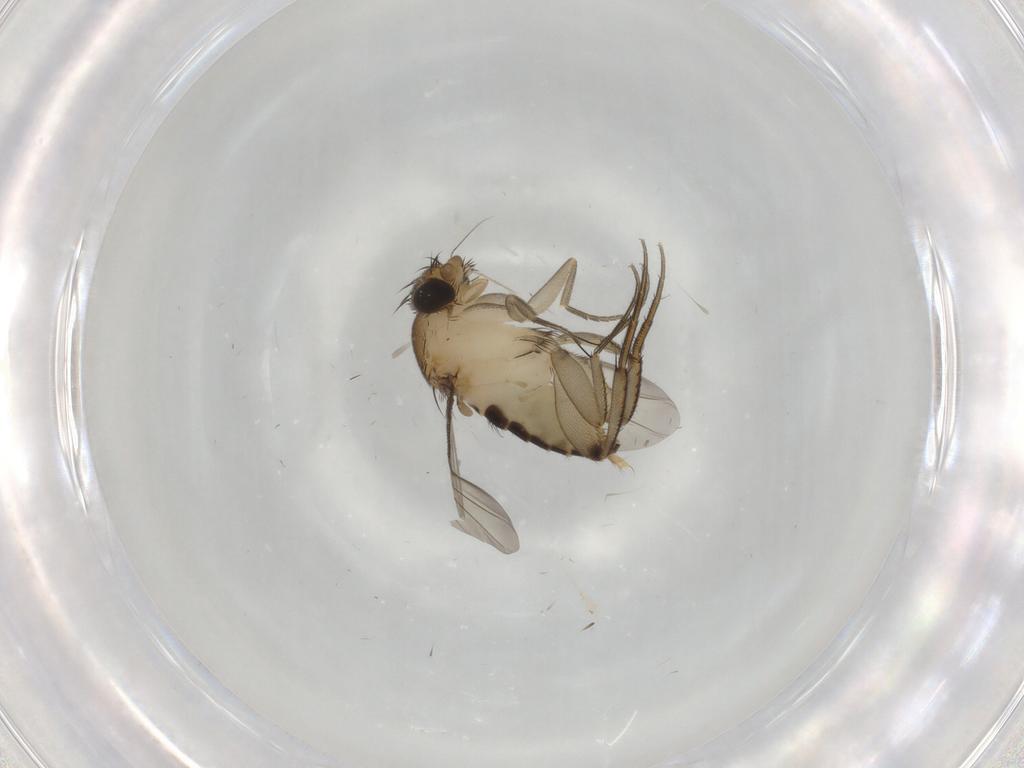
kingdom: Animalia
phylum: Arthropoda
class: Insecta
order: Diptera
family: Phoridae
